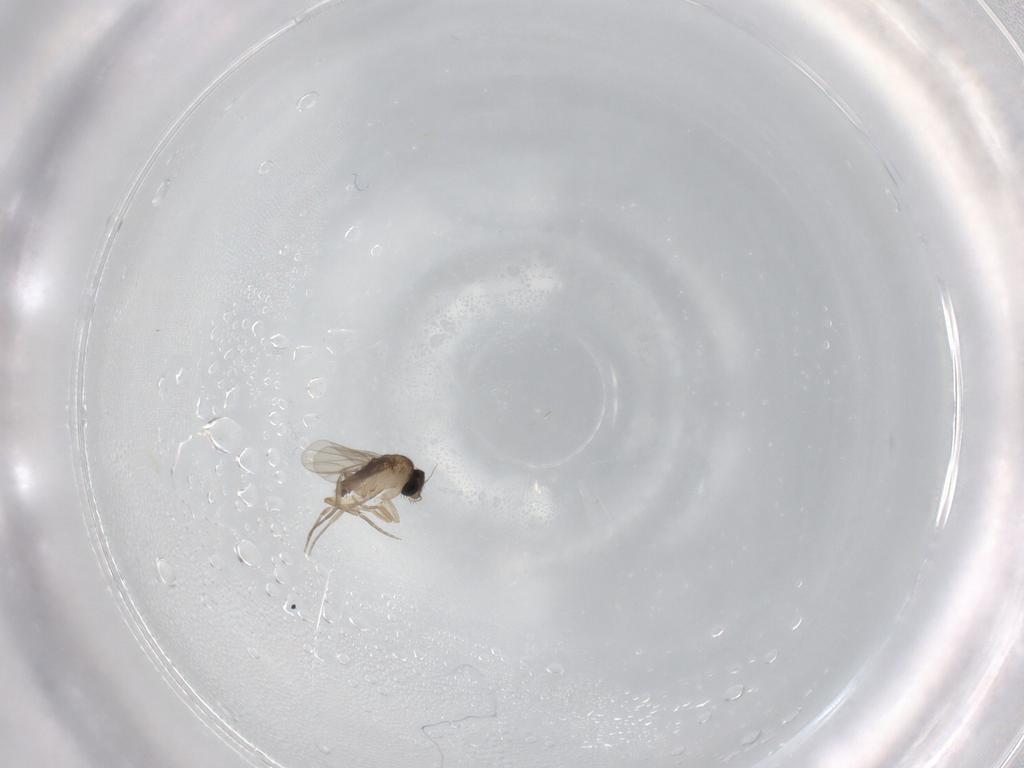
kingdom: Animalia
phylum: Arthropoda
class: Insecta
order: Diptera
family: Phoridae
